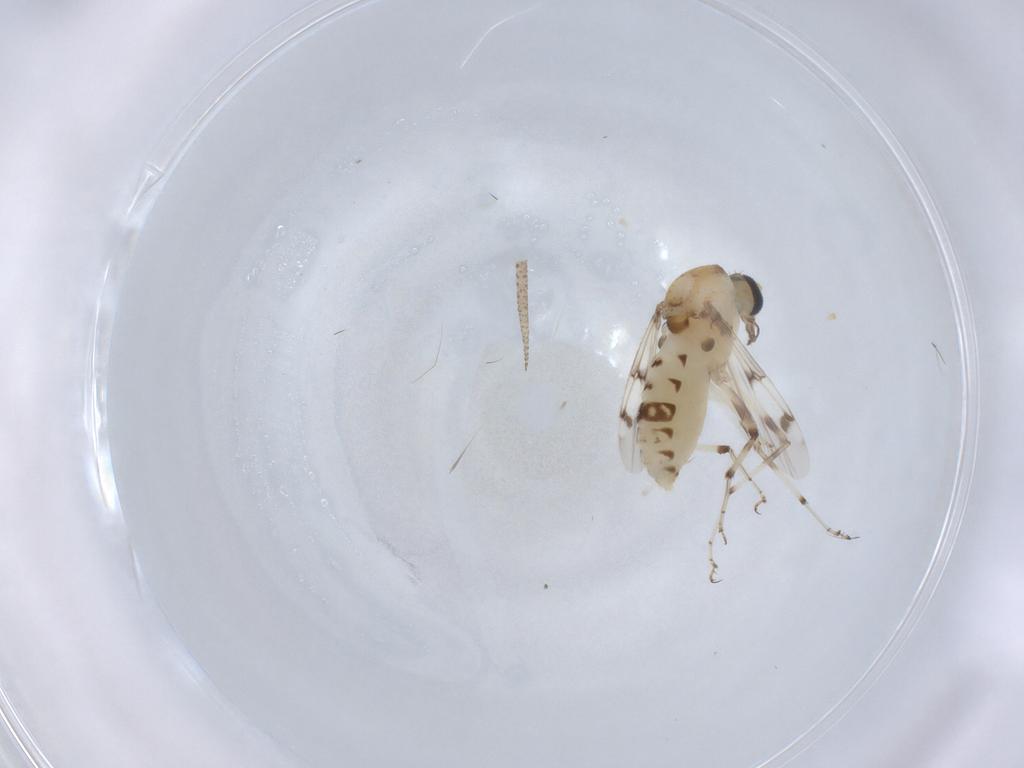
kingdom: Animalia
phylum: Arthropoda
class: Insecta
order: Diptera
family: Ceratopogonidae
